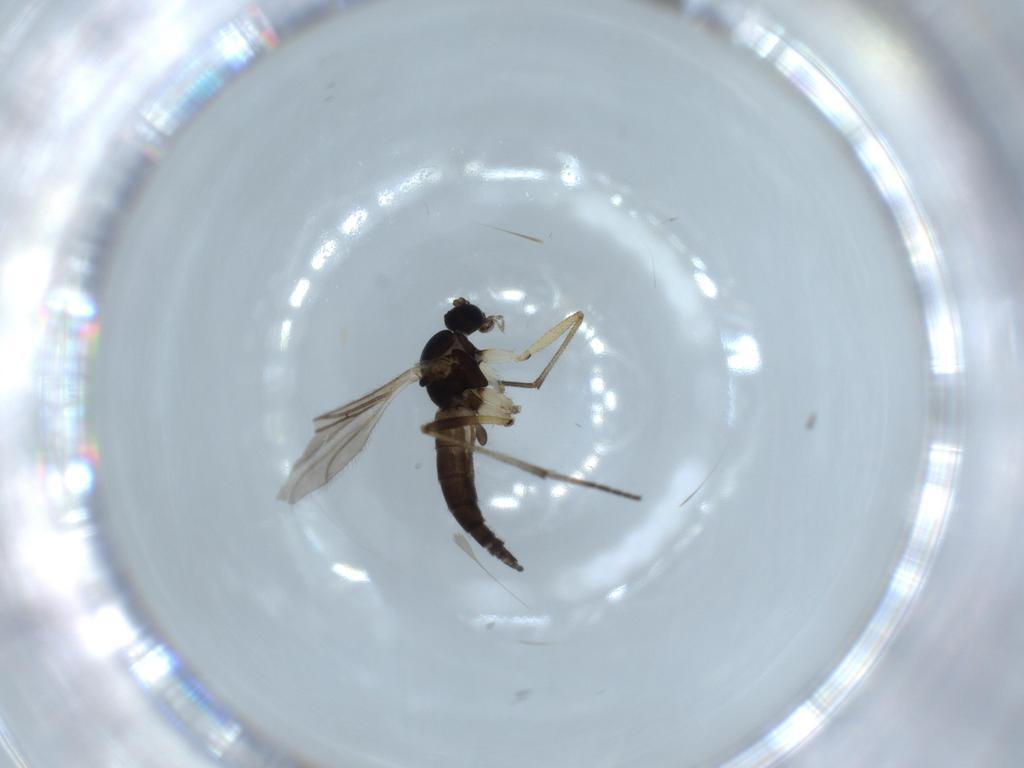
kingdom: Animalia
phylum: Arthropoda
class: Insecta
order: Diptera
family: Sciaridae
